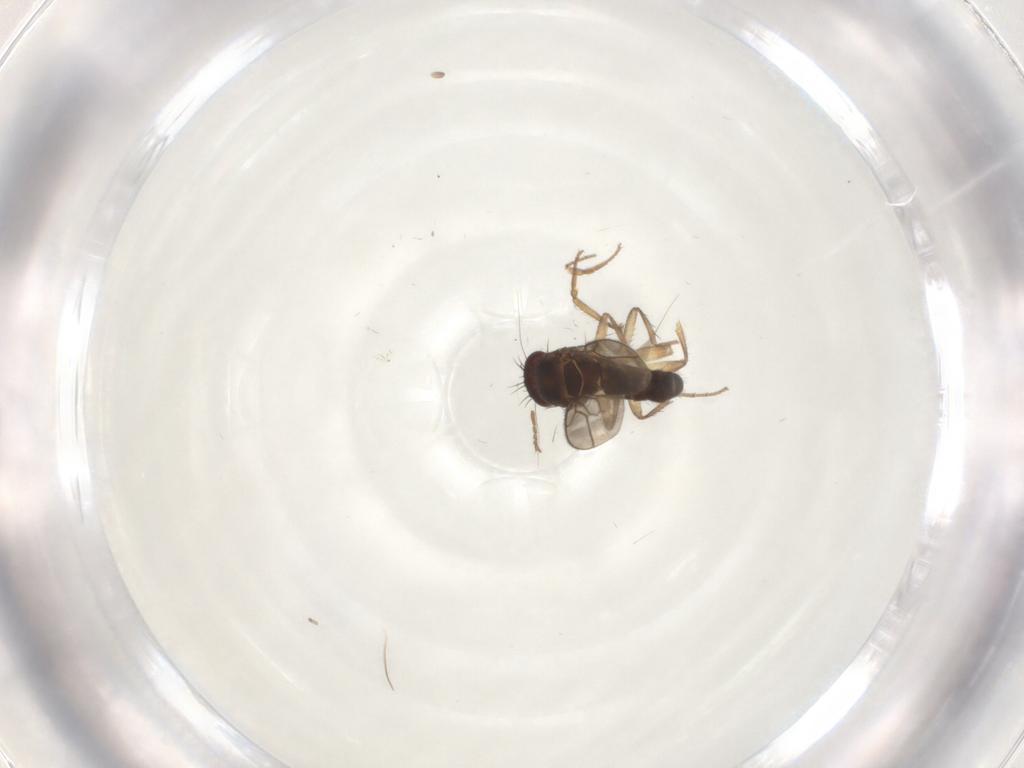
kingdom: Animalia
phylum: Arthropoda
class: Insecta
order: Diptera
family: Sphaeroceridae
